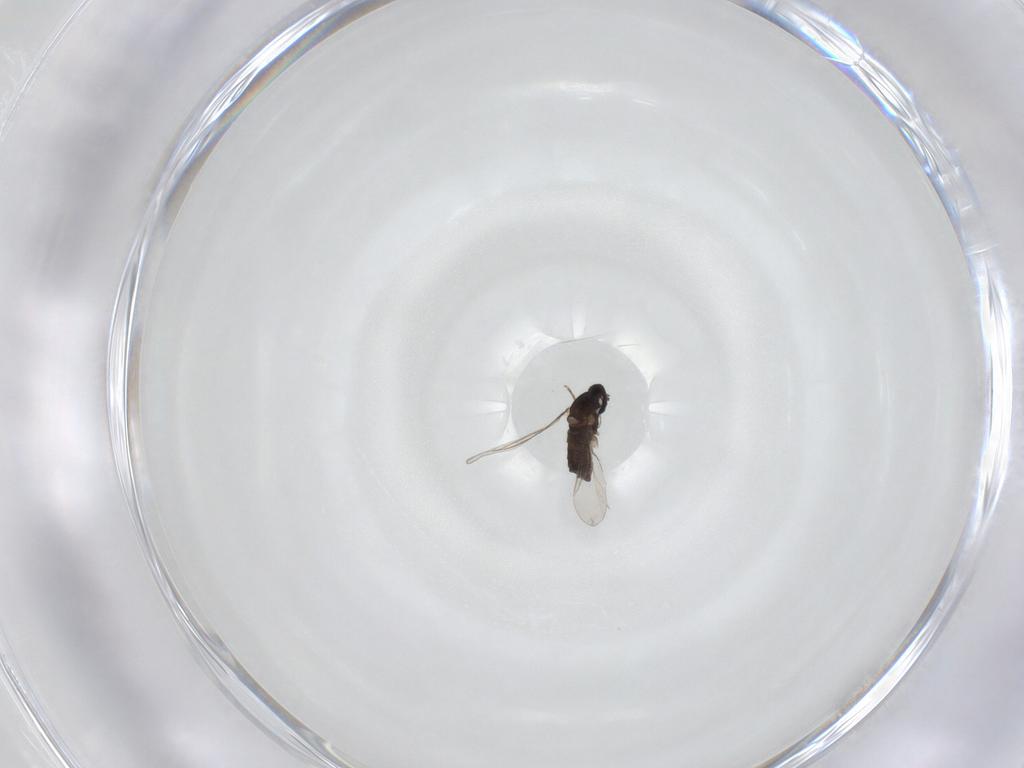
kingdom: Animalia
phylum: Arthropoda
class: Insecta
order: Diptera
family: Cecidomyiidae
